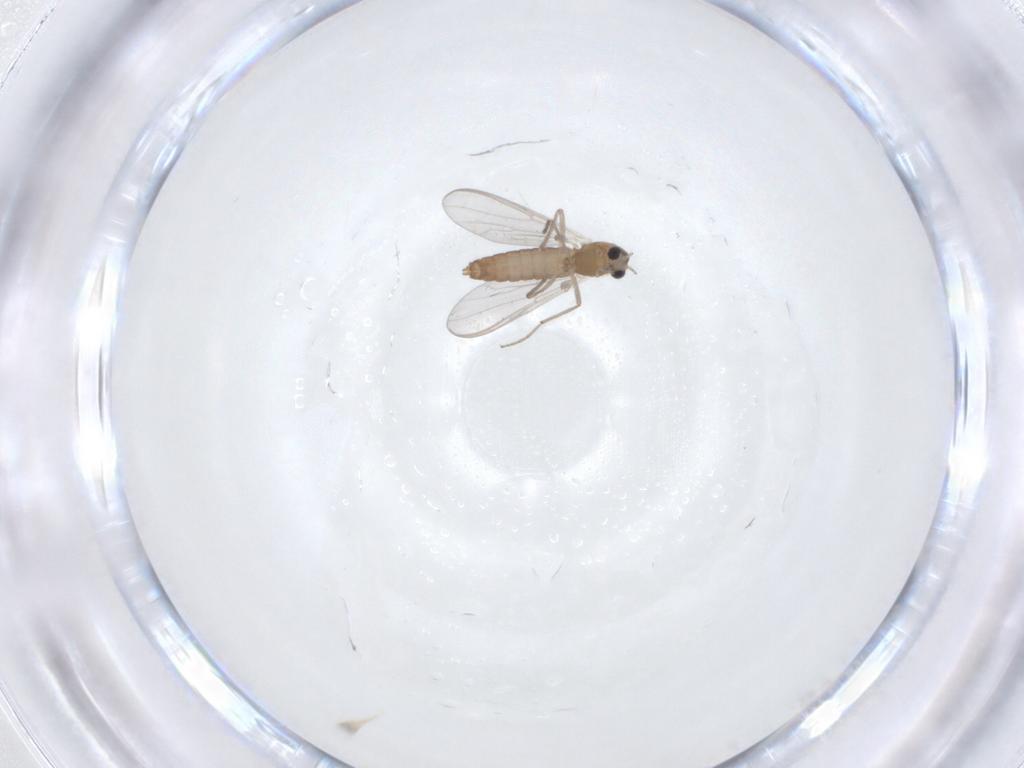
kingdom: Animalia
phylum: Arthropoda
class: Insecta
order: Diptera
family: Chironomidae
